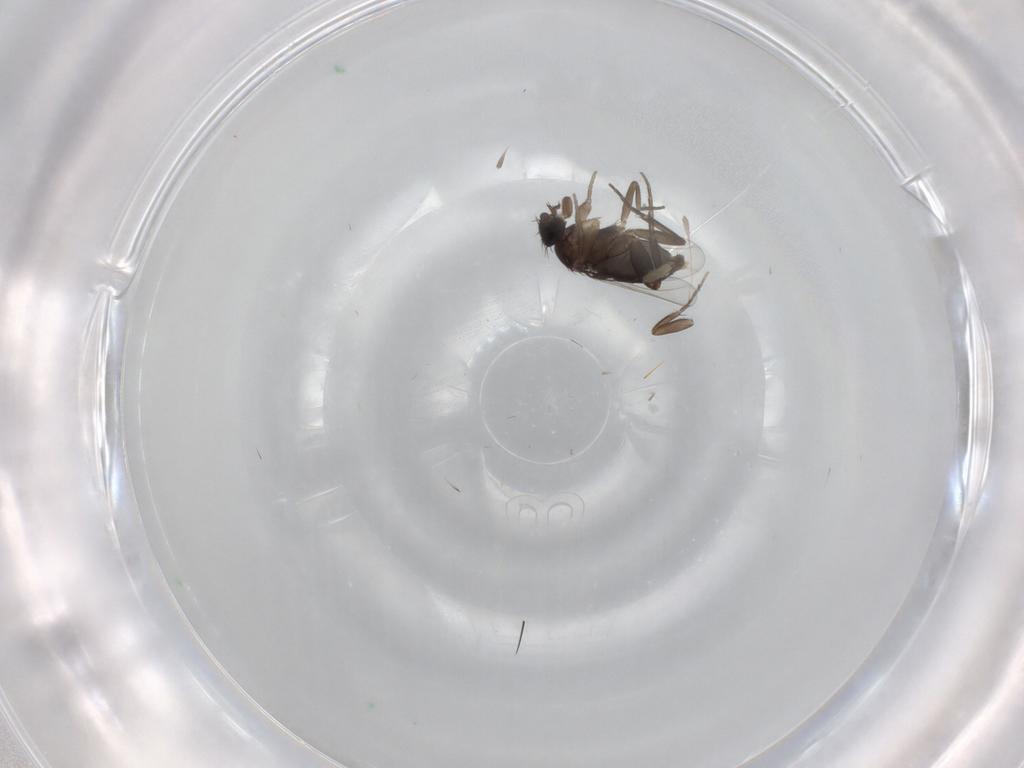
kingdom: Animalia
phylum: Arthropoda
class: Insecta
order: Diptera
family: Phoridae
